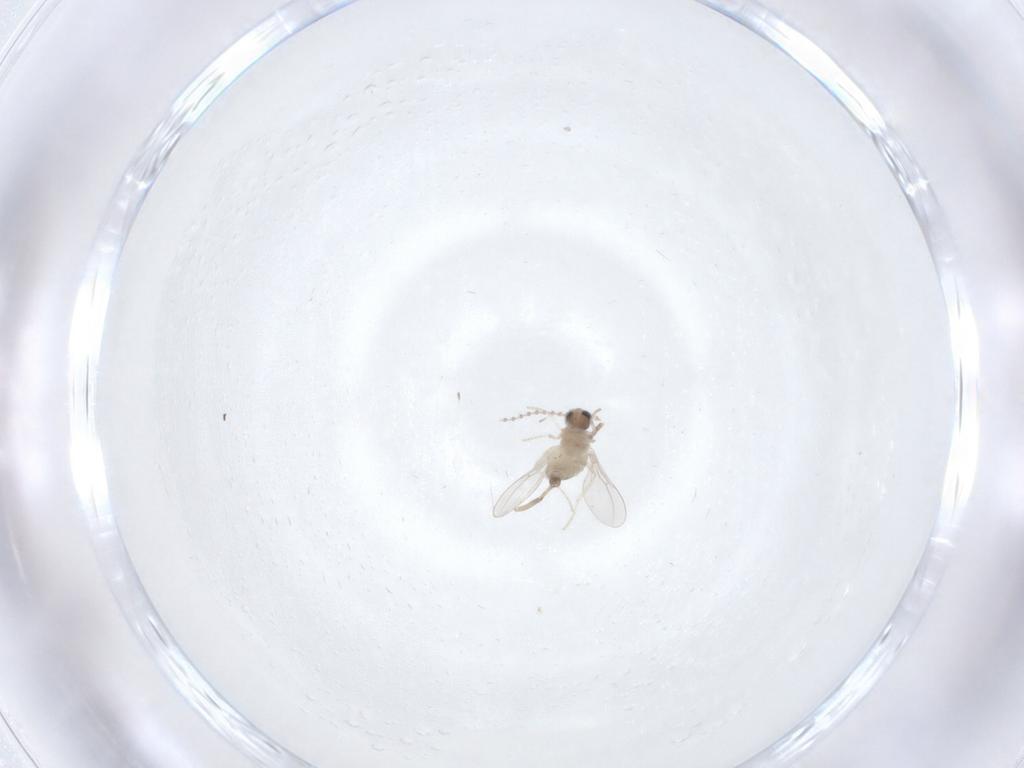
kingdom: Animalia
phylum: Arthropoda
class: Insecta
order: Diptera
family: Cecidomyiidae
